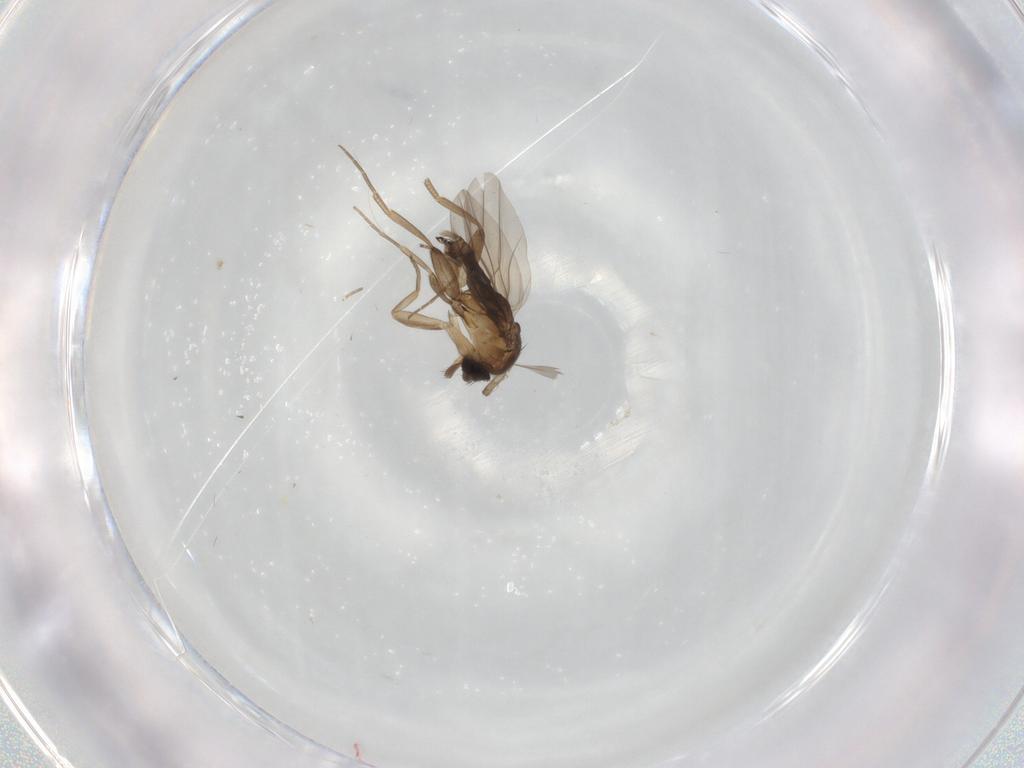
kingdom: Animalia
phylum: Arthropoda
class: Insecta
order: Diptera
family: Phoridae
